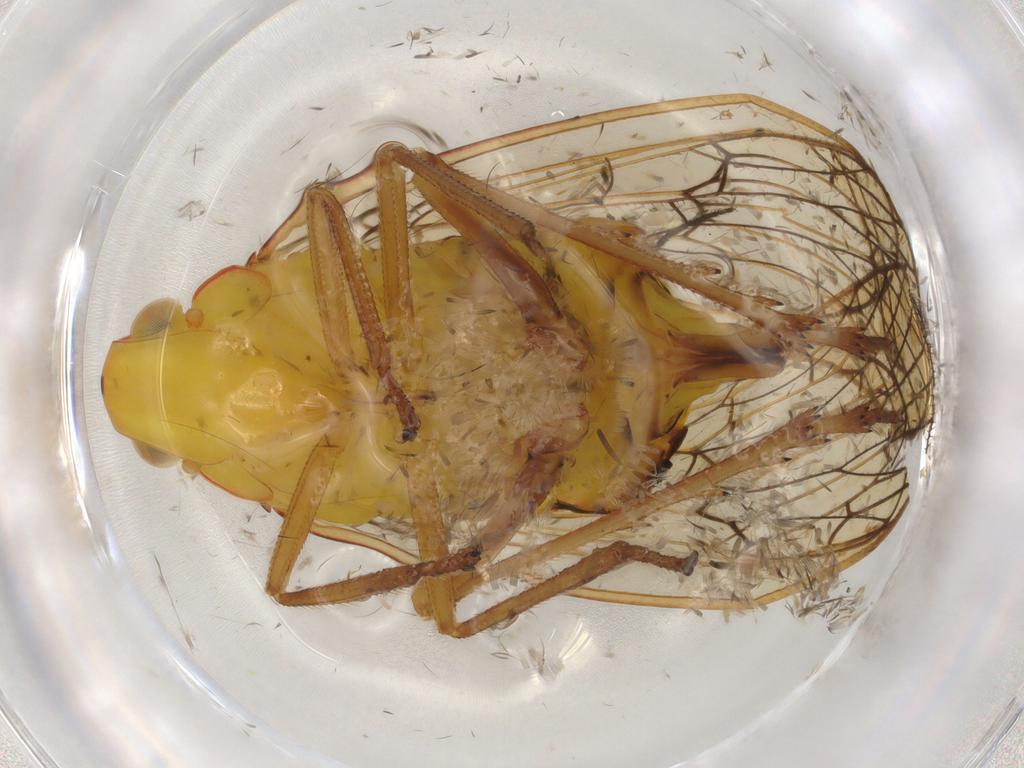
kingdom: Animalia
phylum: Arthropoda
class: Insecta
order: Hemiptera
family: Tropiduchidae
